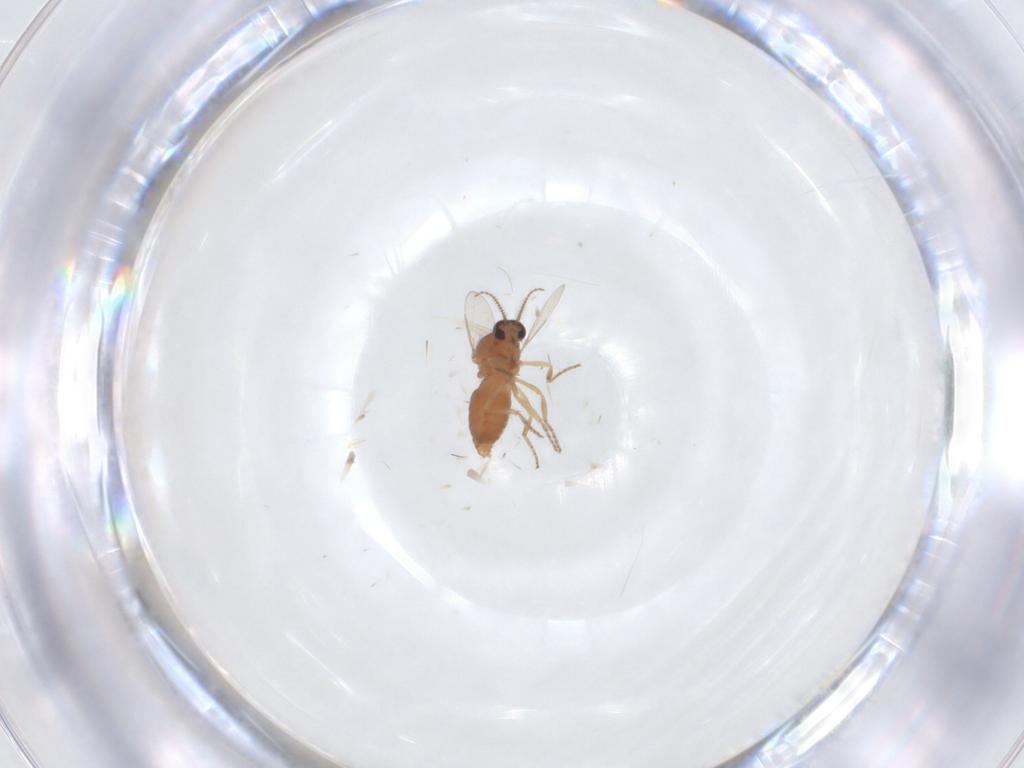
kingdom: Animalia
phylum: Arthropoda
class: Insecta
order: Diptera
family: Ceratopogonidae
